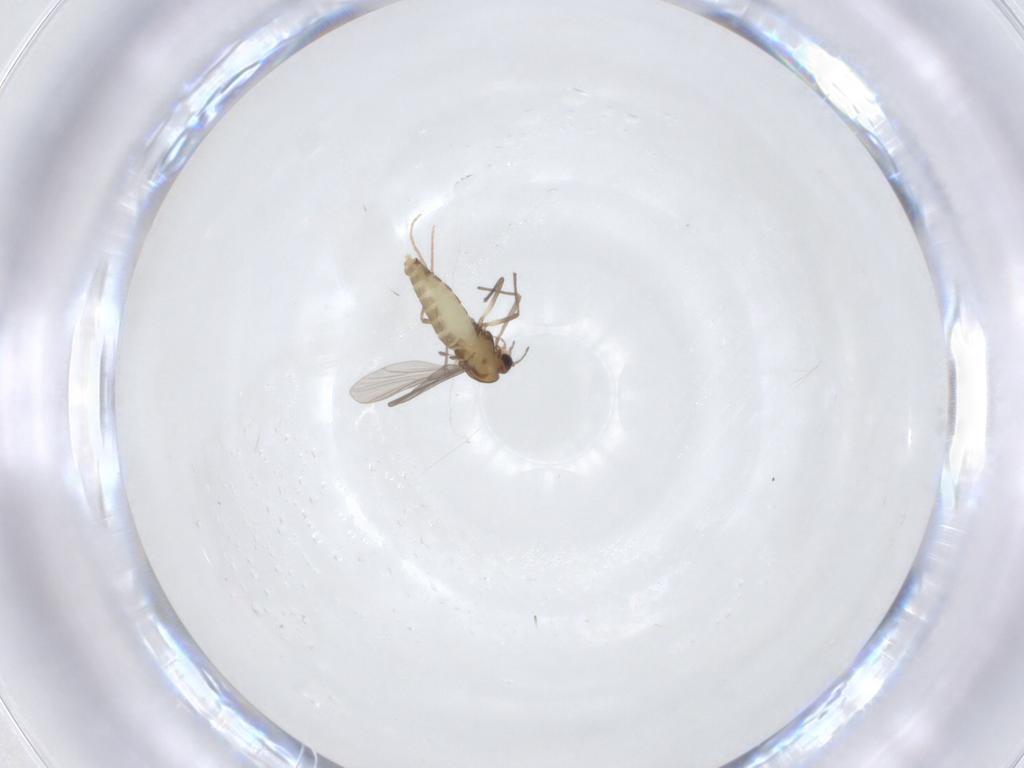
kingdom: Animalia
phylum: Arthropoda
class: Insecta
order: Diptera
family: Chironomidae
